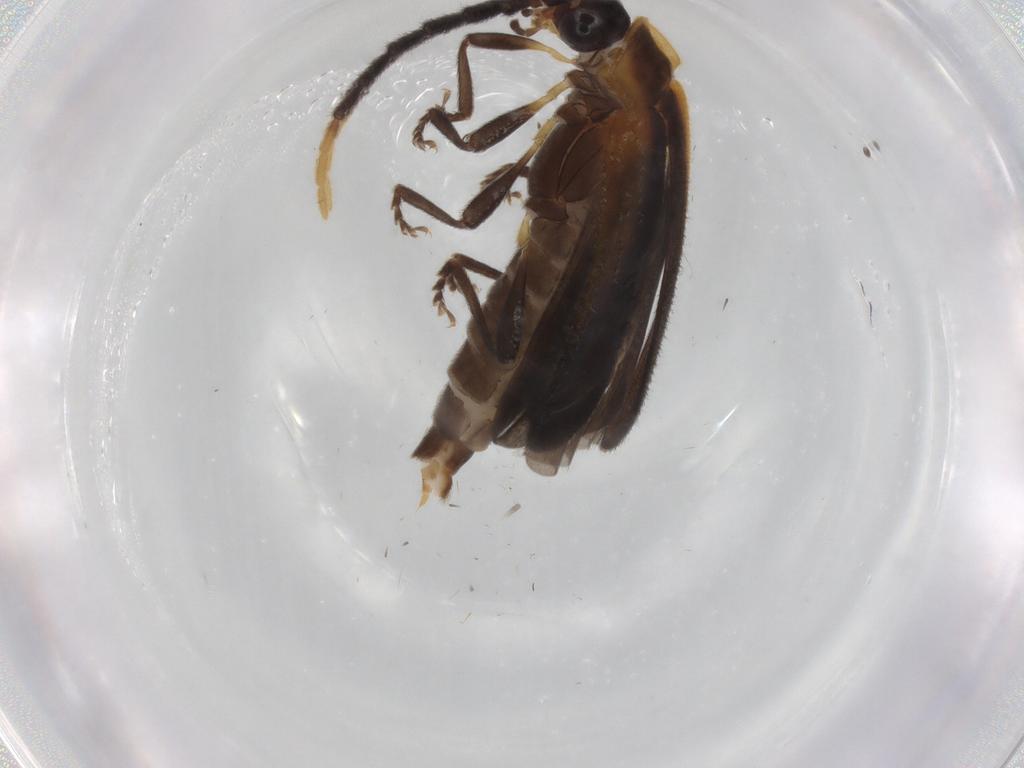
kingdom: Animalia
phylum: Arthropoda
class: Insecta
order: Coleoptera
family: Lycidae
